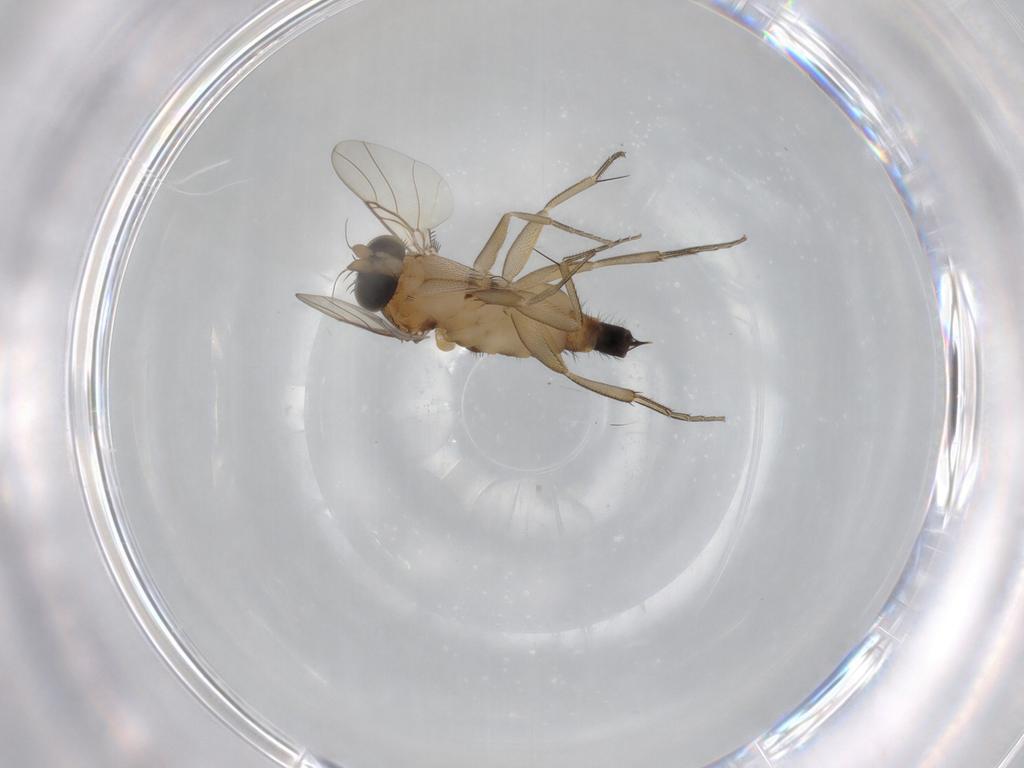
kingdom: Animalia
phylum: Arthropoda
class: Insecta
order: Diptera
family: Phoridae
